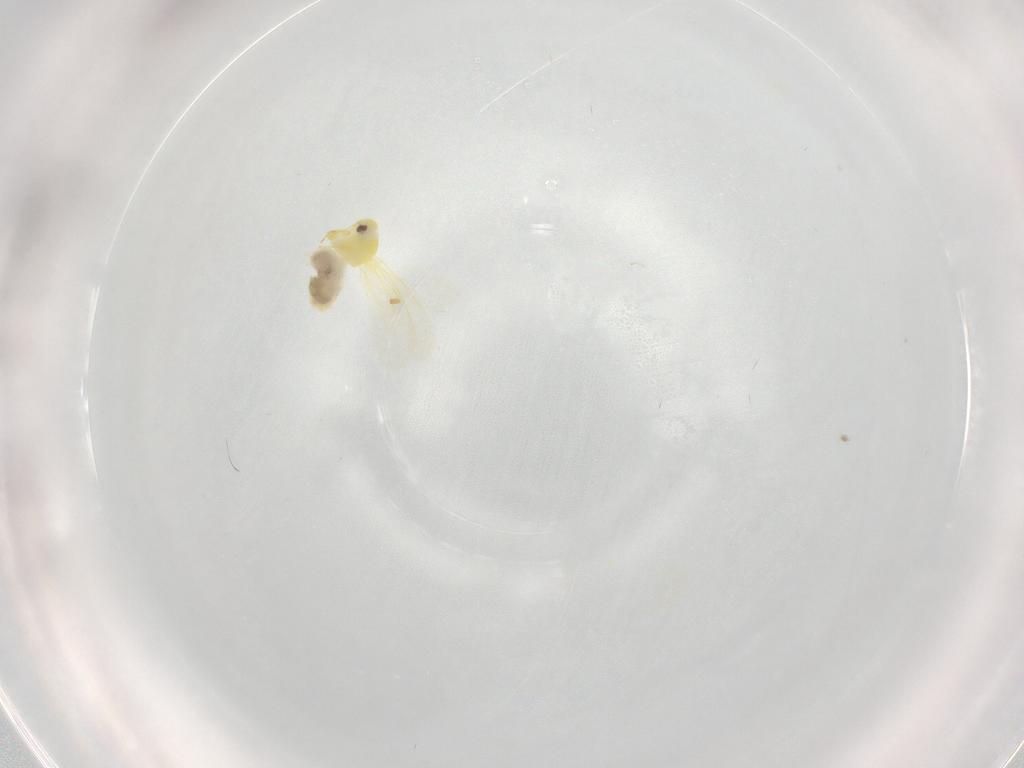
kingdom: Animalia
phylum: Arthropoda
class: Insecta
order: Hemiptera
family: Aleyrodidae
